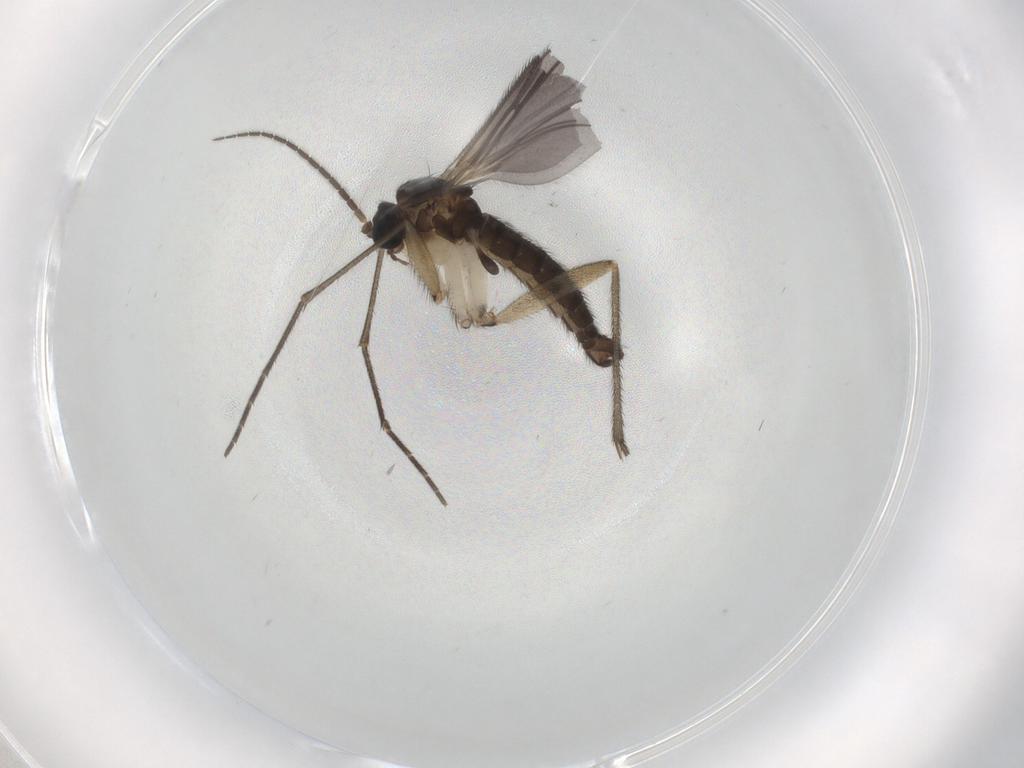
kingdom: Animalia
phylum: Arthropoda
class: Insecta
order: Diptera
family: Sciaridae
